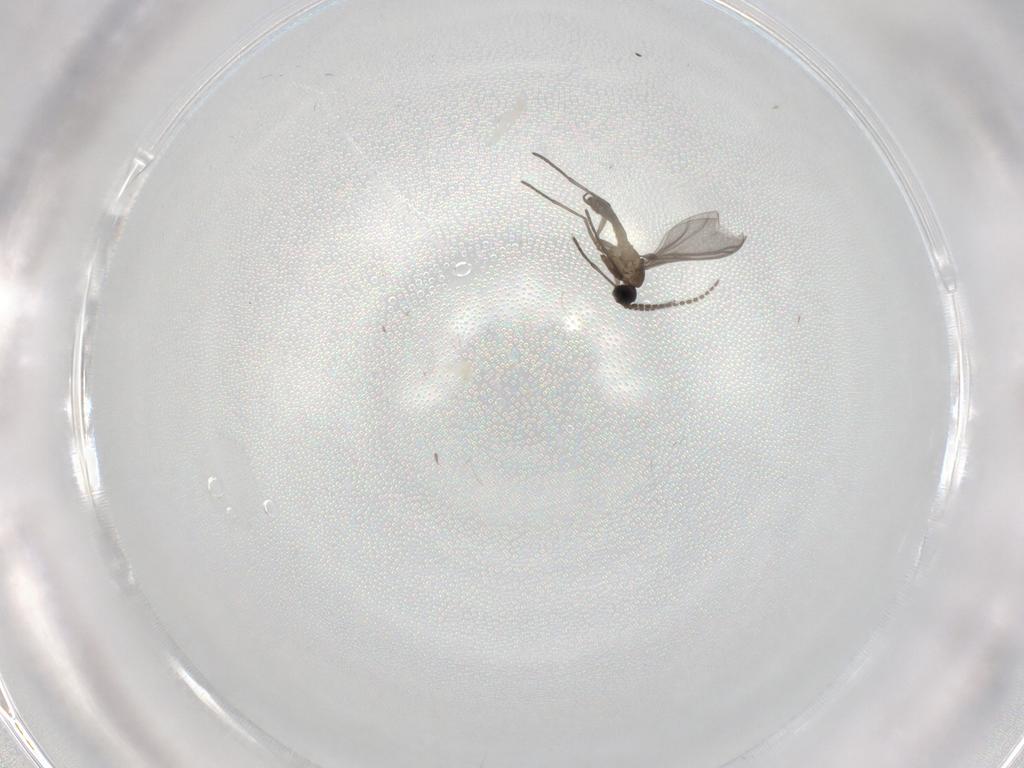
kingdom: Animalia
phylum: Arthropoda
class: Insecta
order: Diptera
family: Ceratopogonidae
